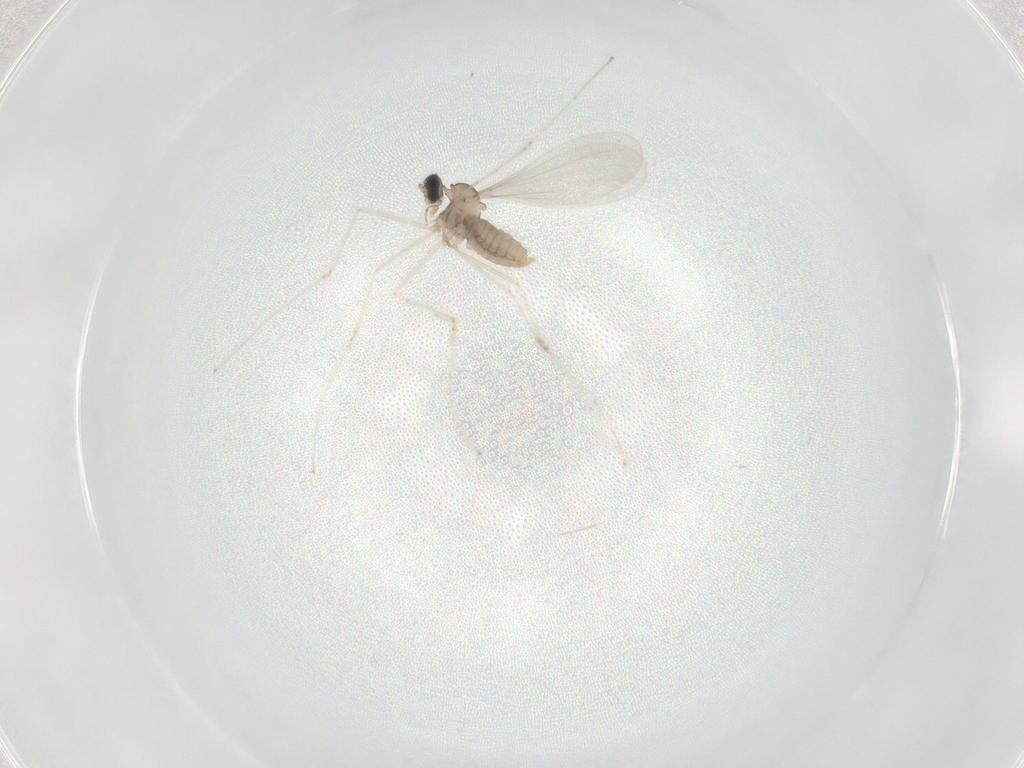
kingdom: Animalia
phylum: Arthropoda
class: Insecta
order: Diptera
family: Cecidomyiidae
